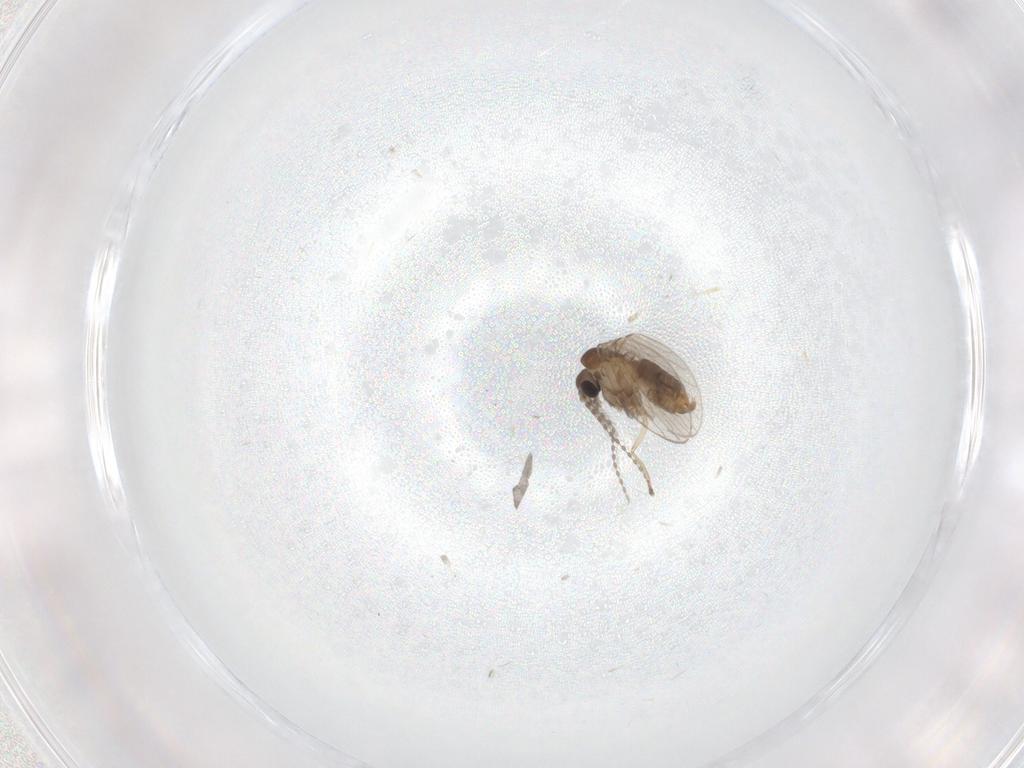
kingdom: Animalia
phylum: Arthropoda
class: Insecta
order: Diptera
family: Cecidomyiidae
